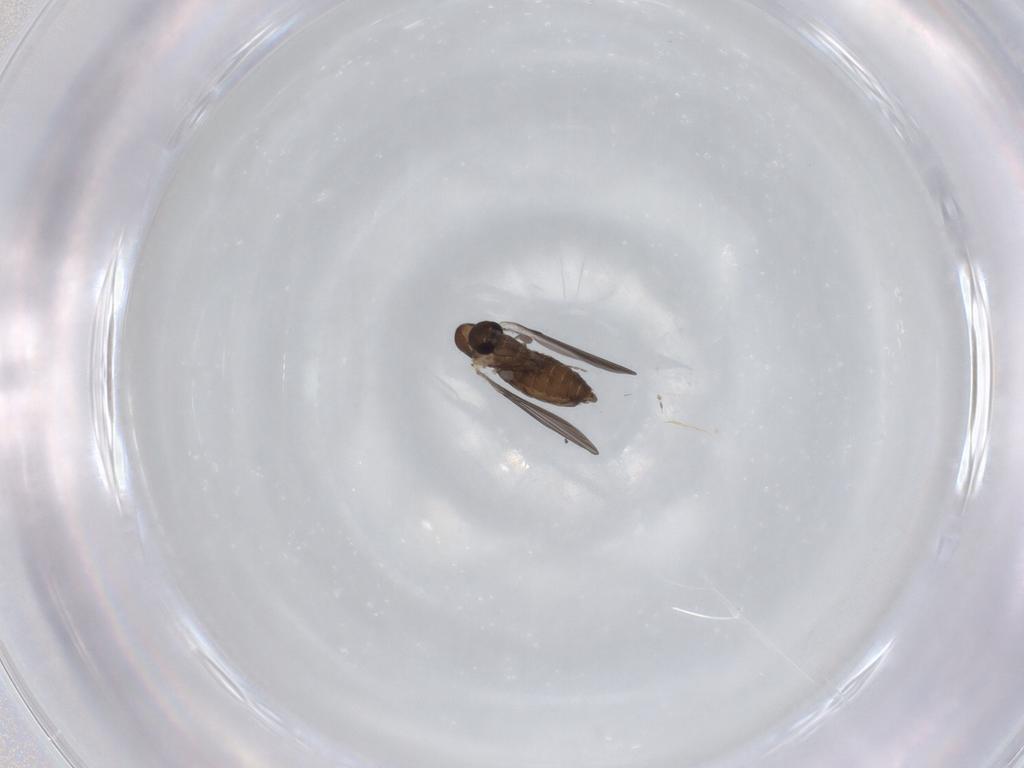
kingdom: Animalia
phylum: Arthropoda
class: Insecta
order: Diptera
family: Cecidomyiidae
